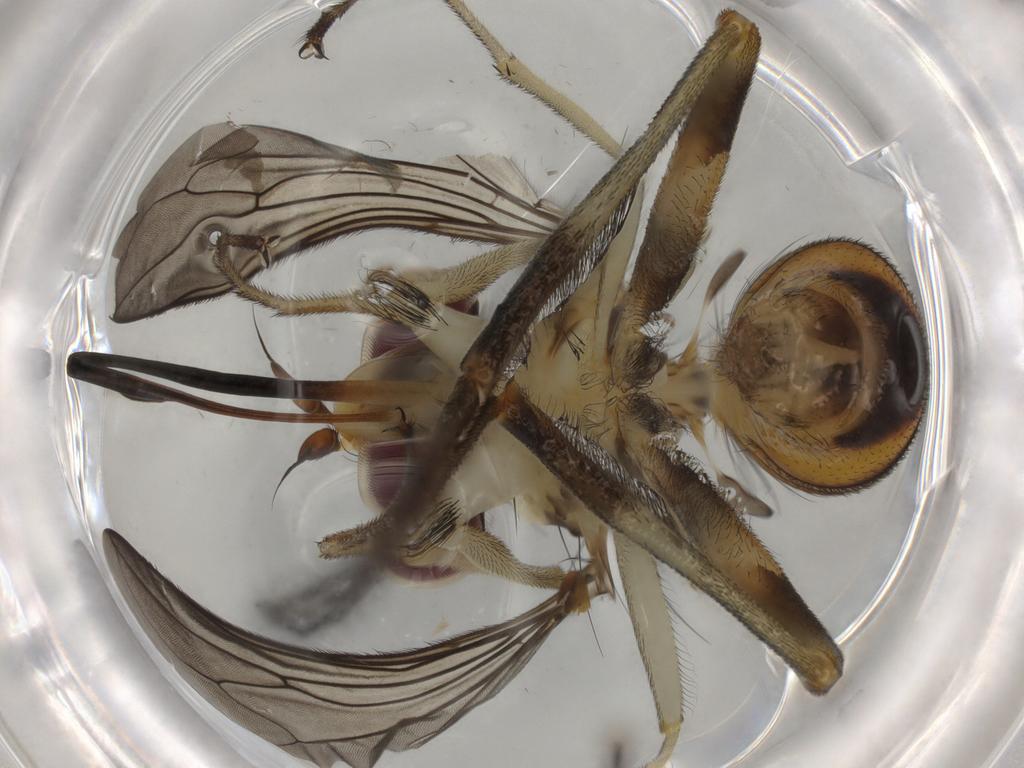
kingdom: Animalia
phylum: Arthropoda
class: Insecta
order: Diptera
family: Conopidae
